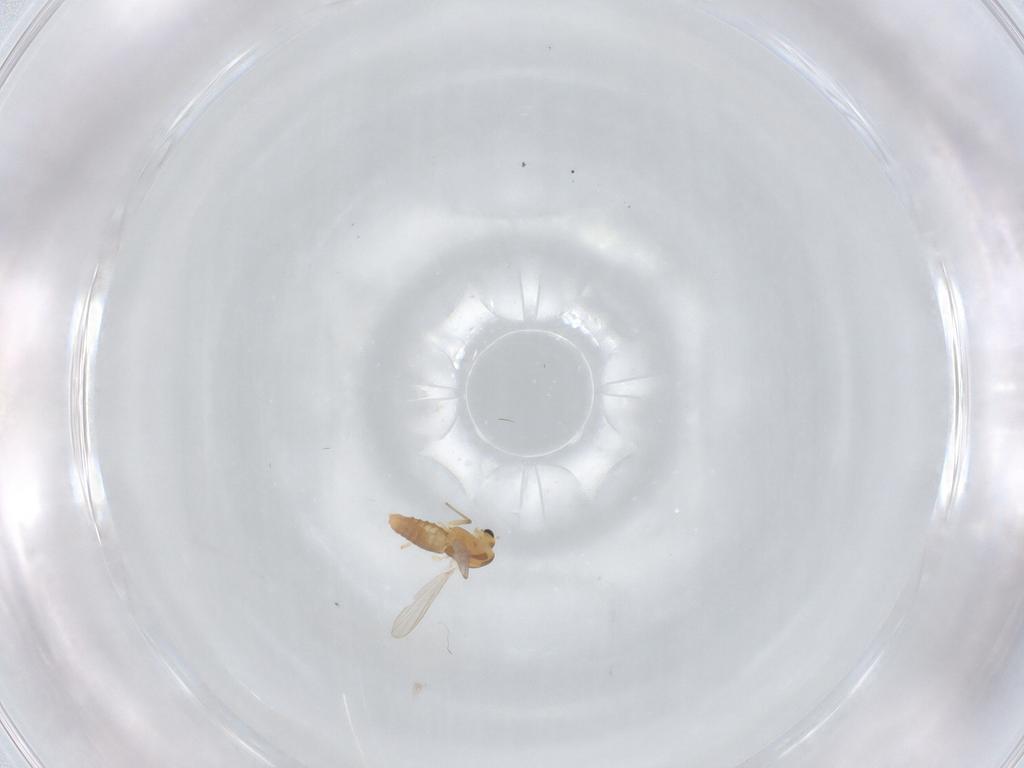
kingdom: Animalia
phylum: Arthropoda
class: Insecta
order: Diptera
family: Chironomidae
